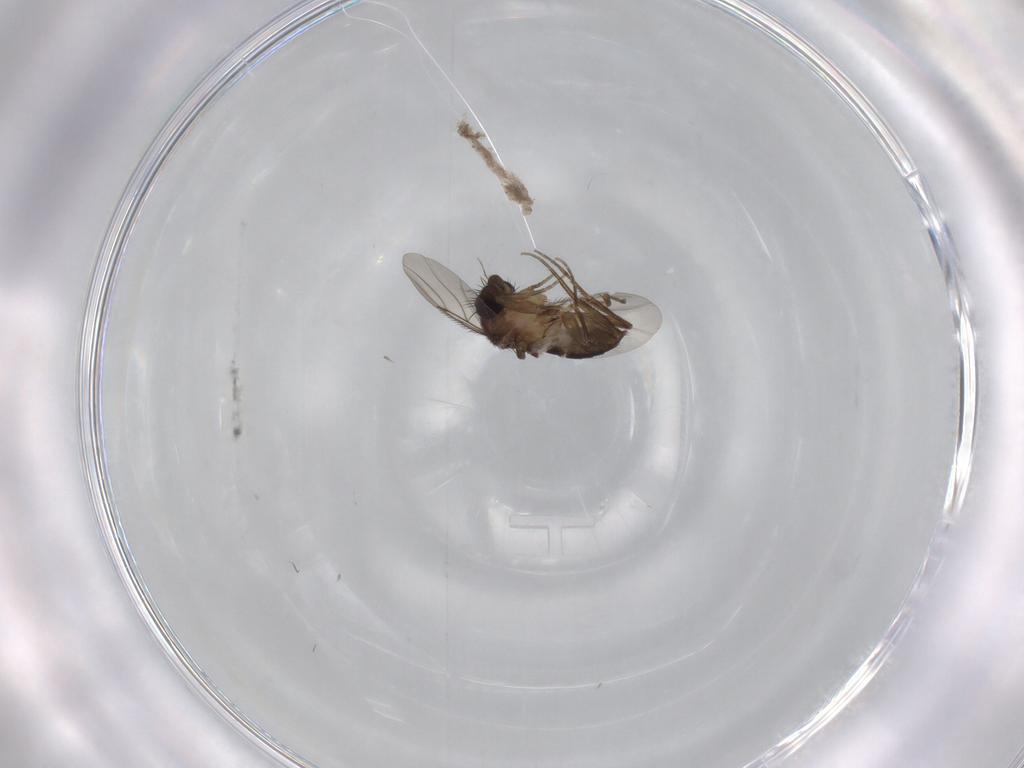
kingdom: Animalia
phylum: Arthropoda
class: Insecta
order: Diptera
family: Phoridae
